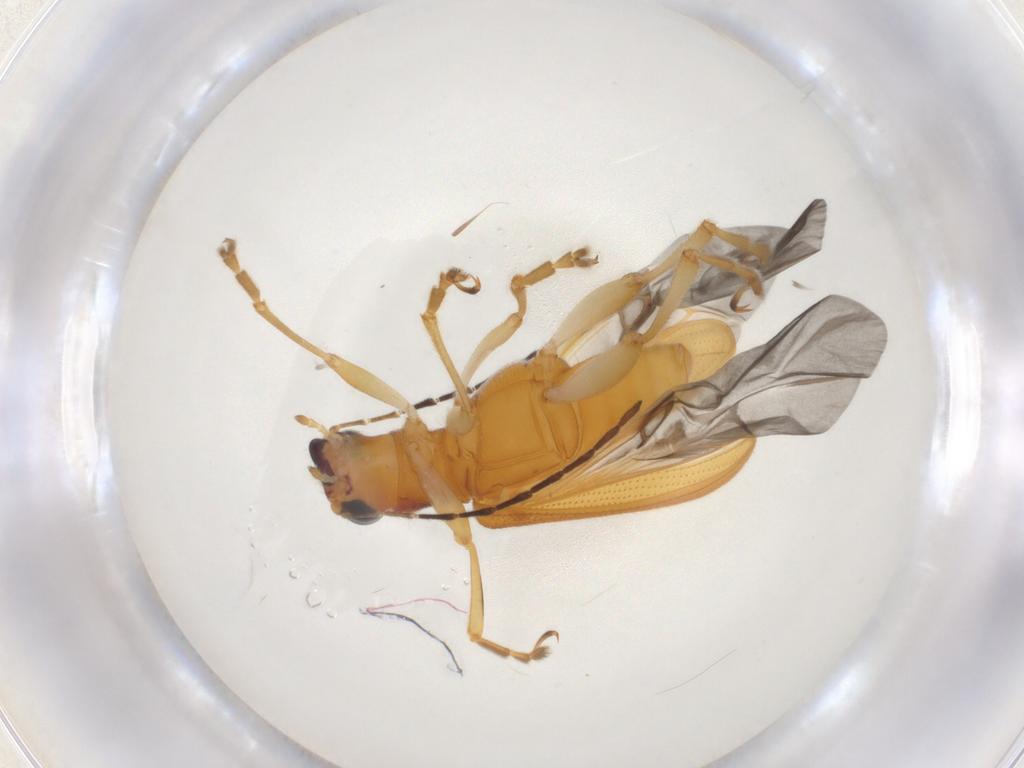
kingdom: Animalia
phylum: Arthropoda
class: Insecta
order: Coleoptera
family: Chrysomelidae
